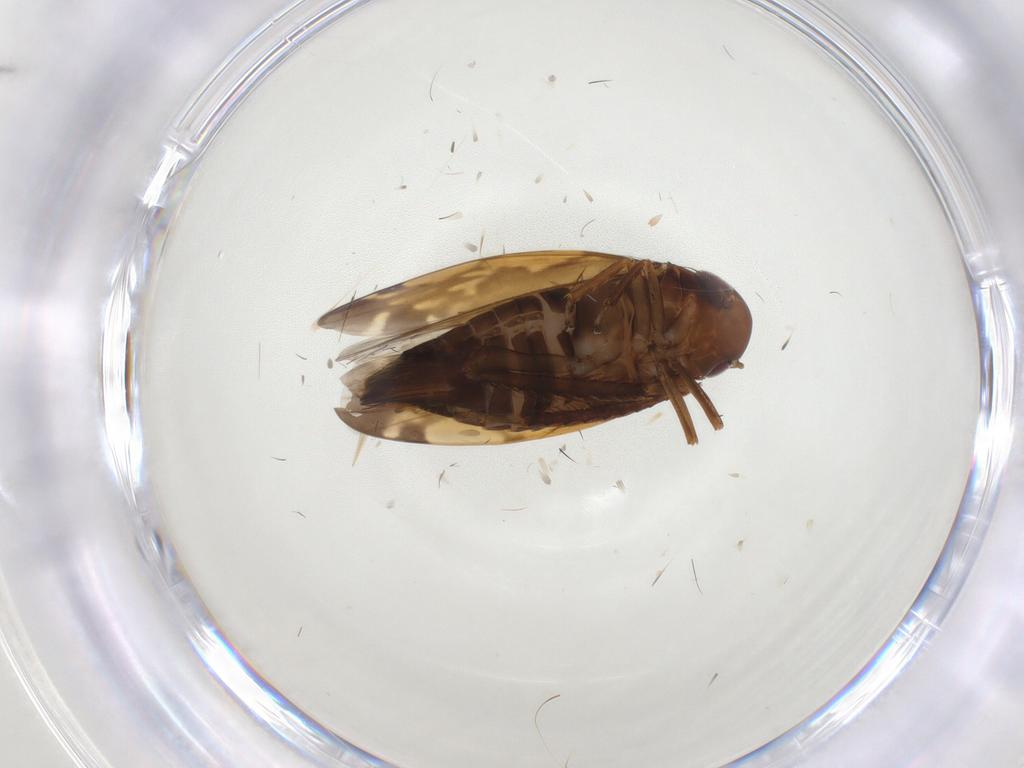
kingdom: Animalia
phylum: Arthropoda
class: Insecta
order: Hemiptera
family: Cicadellidae
